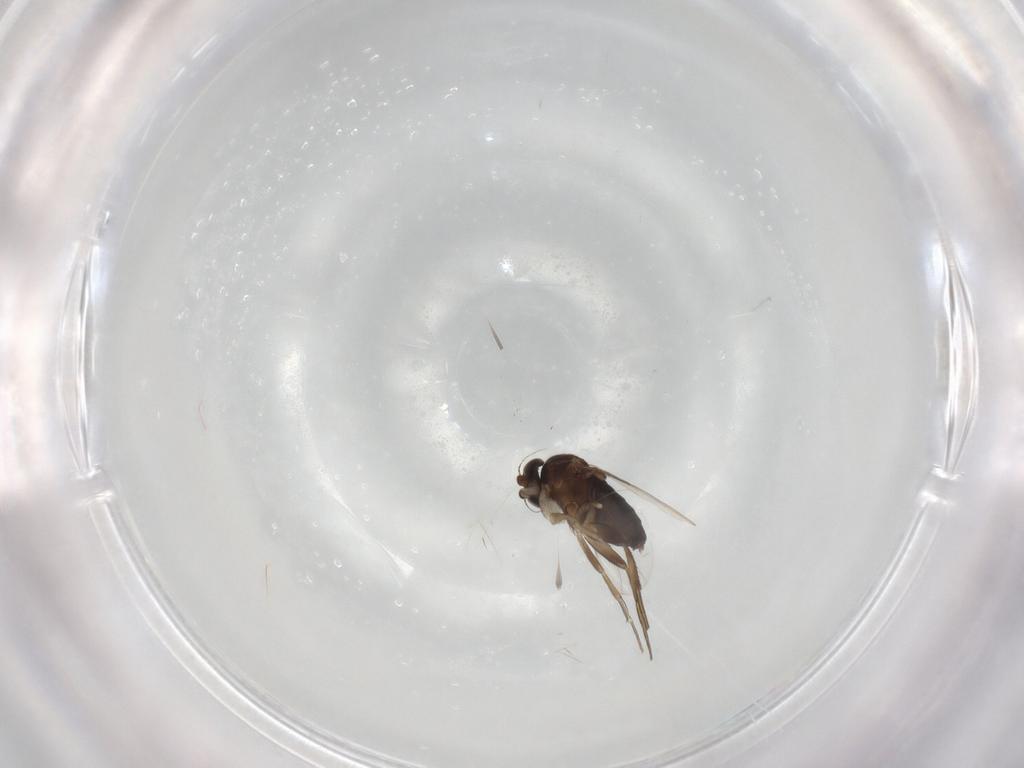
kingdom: Animalia
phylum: Arthropoda
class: Insecta
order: Diptera
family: Phoridae
